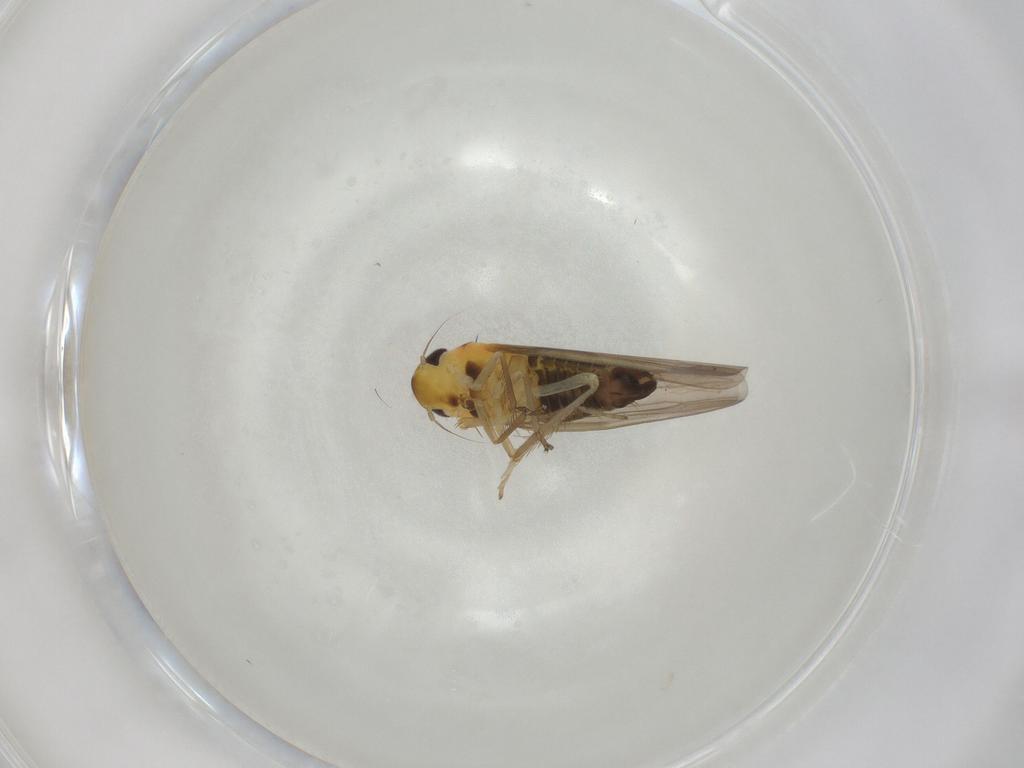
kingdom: Animalia
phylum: Arthropoda
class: Insecta
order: Hemiptera
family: Cicadellidae
